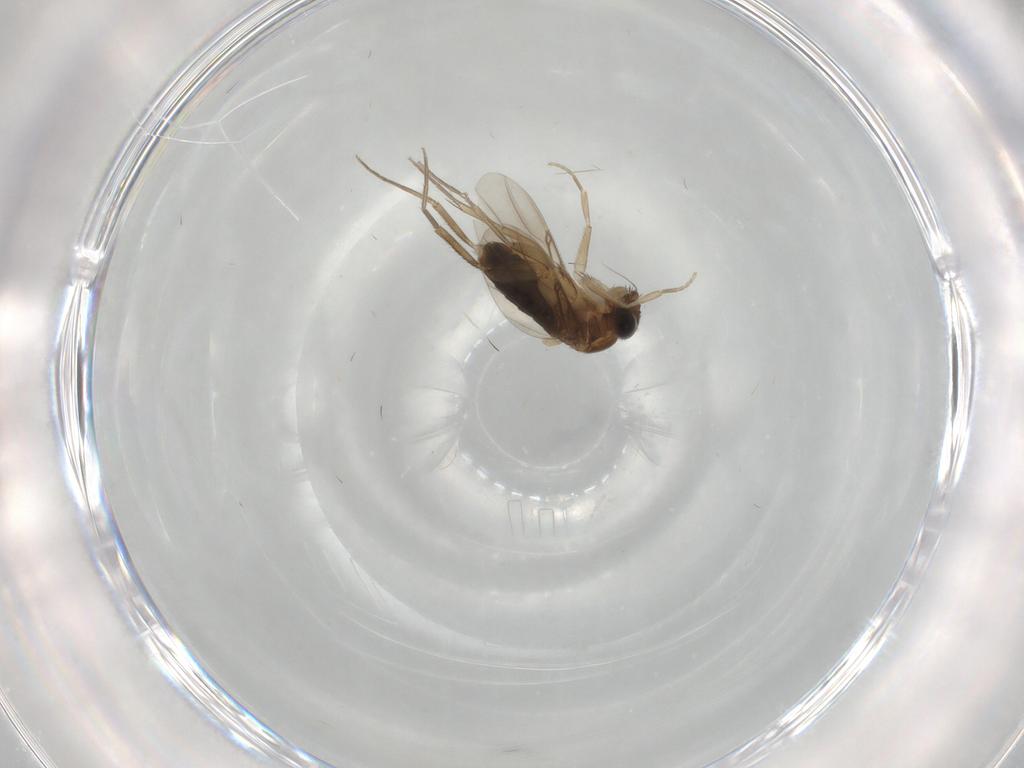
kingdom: Animalia
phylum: Arthropoda
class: Insecta
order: Diptera
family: Phoridae
